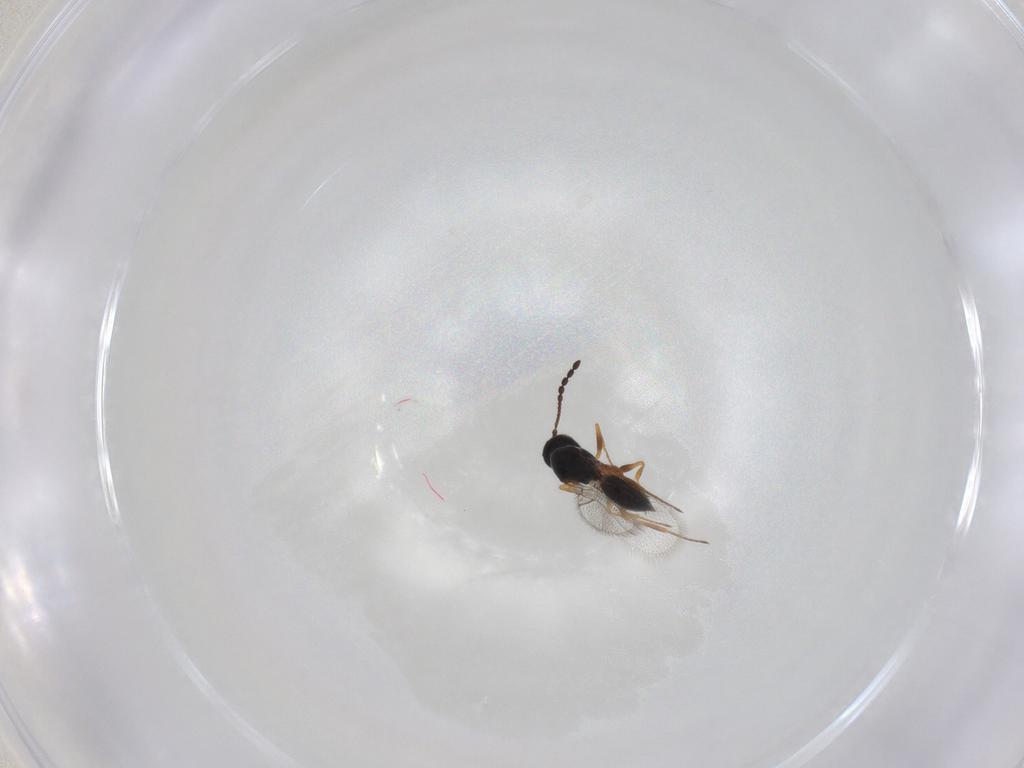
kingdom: Animalia
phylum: Arthropoda
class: Insecta
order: Hymenoptera
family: Figitidae
